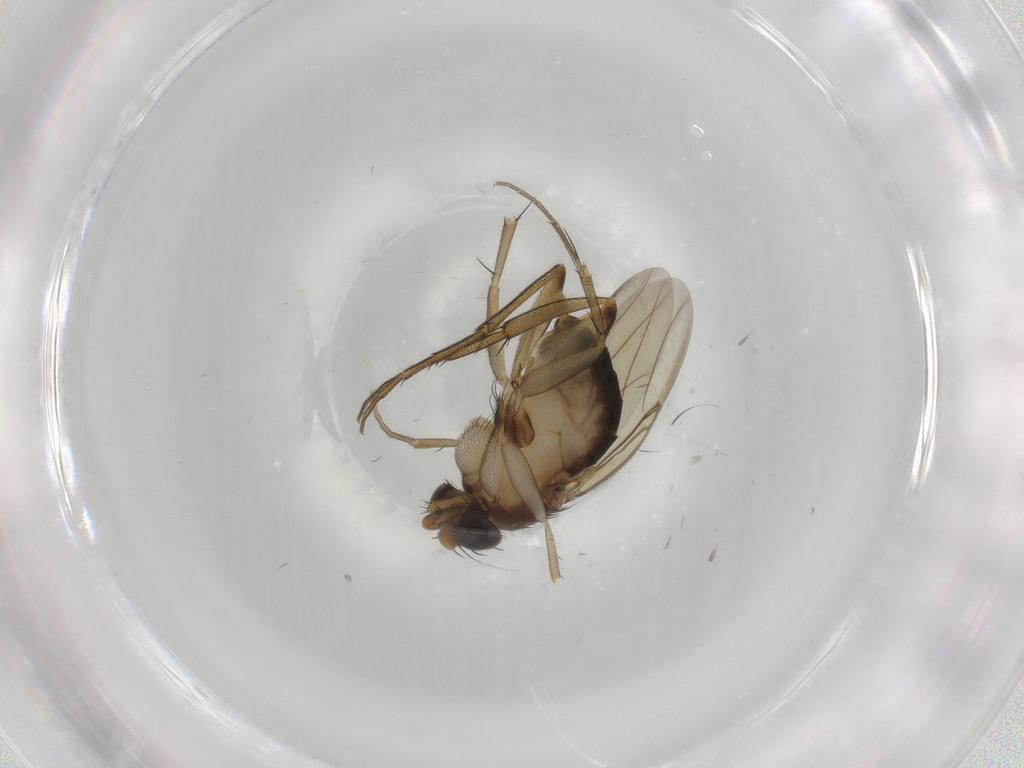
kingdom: Animalia
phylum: Arthropoda
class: Insecta
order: Diptera
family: Phoridae
